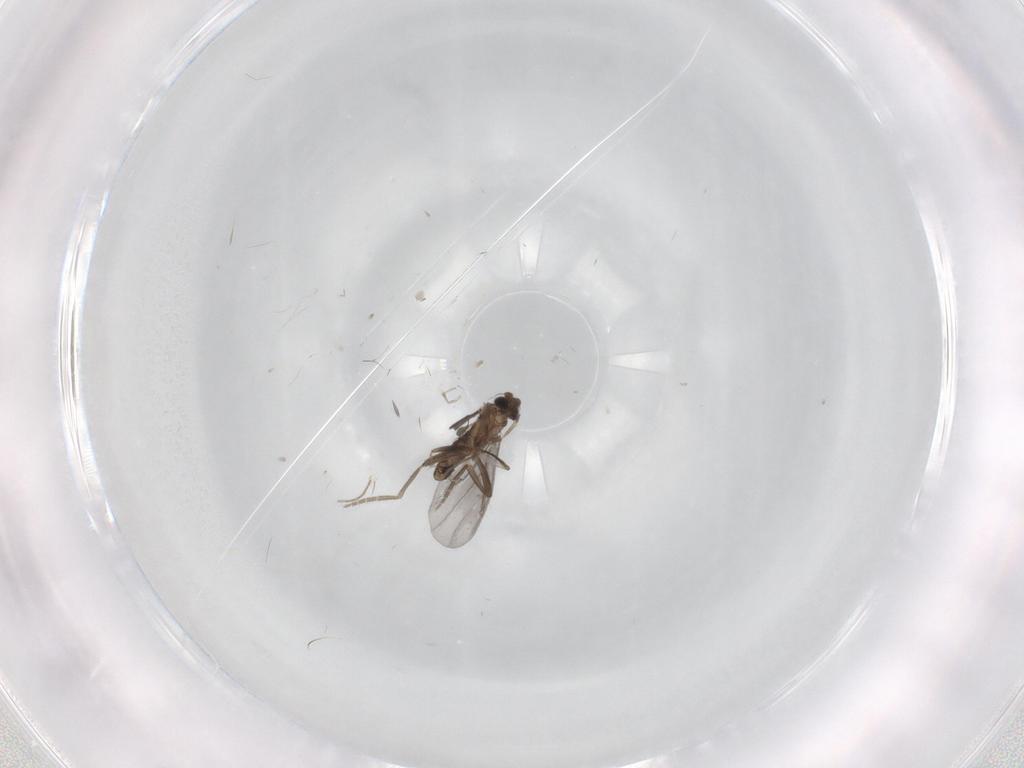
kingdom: Animalia
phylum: Arthropoda
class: Insecta
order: Diptera
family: Phoridae
